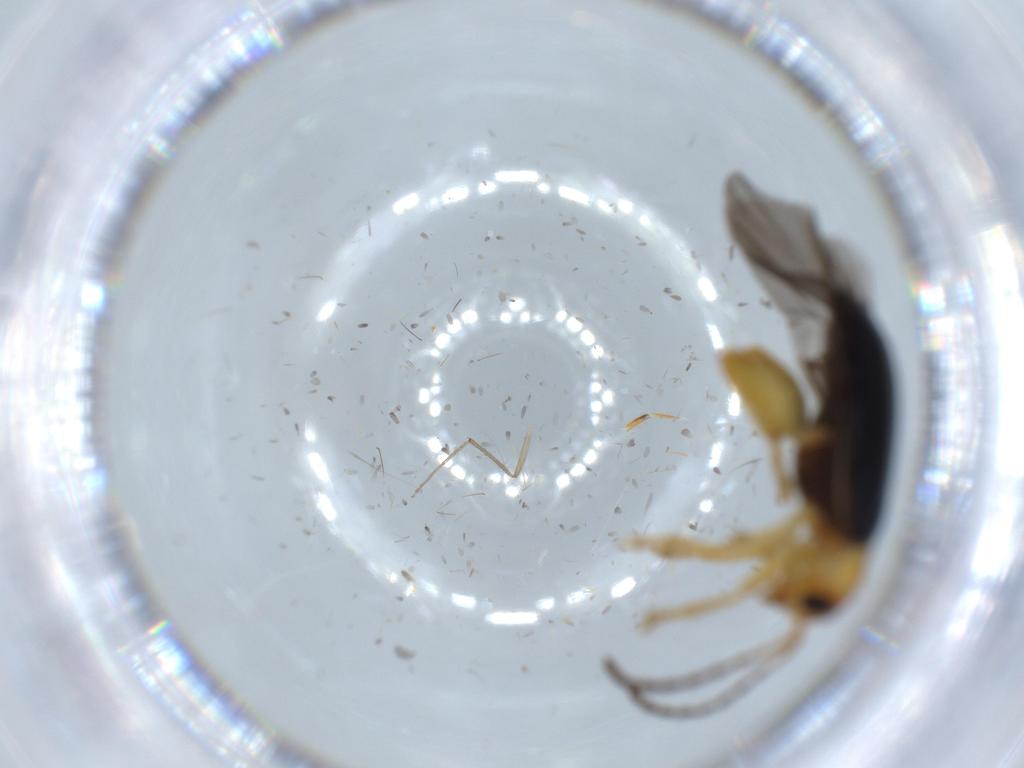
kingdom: Animalia
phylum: Arthropoda
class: Insecta
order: Coleoptera
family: Chrysomelidae
